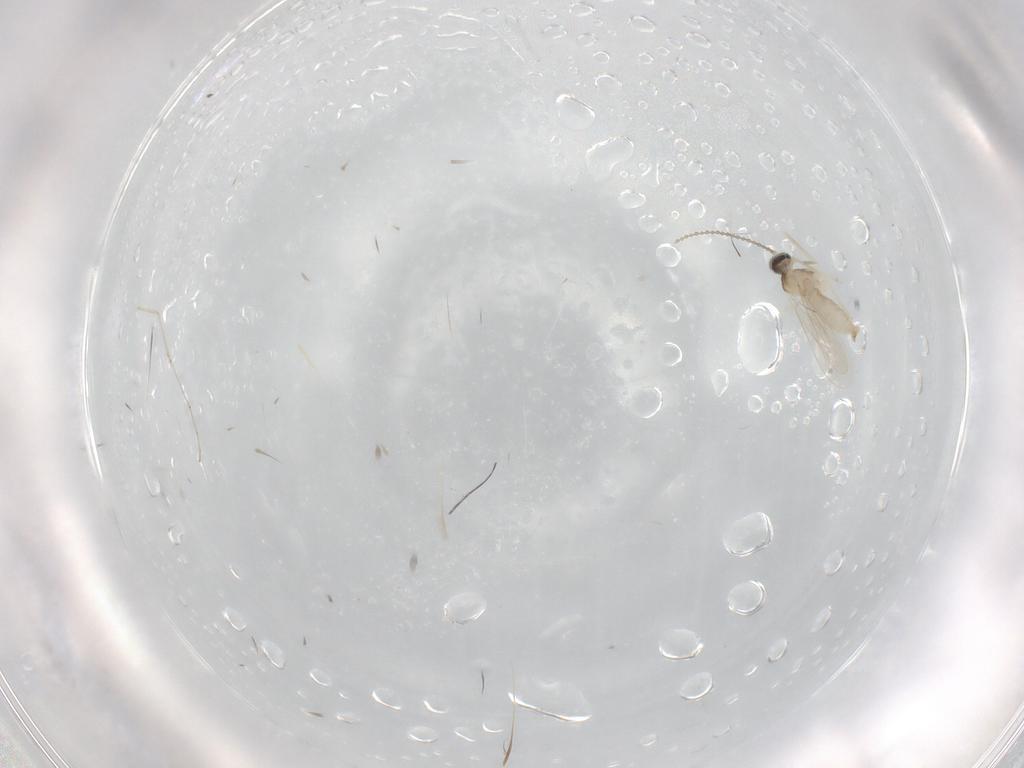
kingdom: Animalia
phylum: Arthropoda
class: Insecta
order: Diptera
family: Cecidomyiidae
